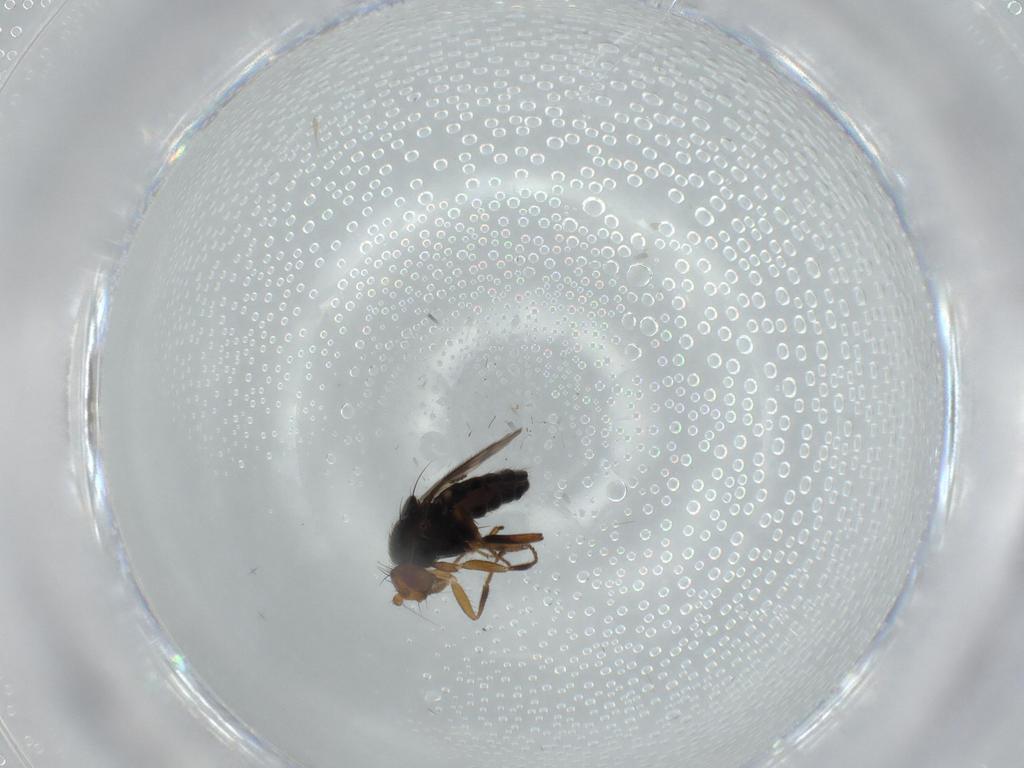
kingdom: Animalia
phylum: Arthropoda
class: Insecta
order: Diptera
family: Sphaeroceridae
